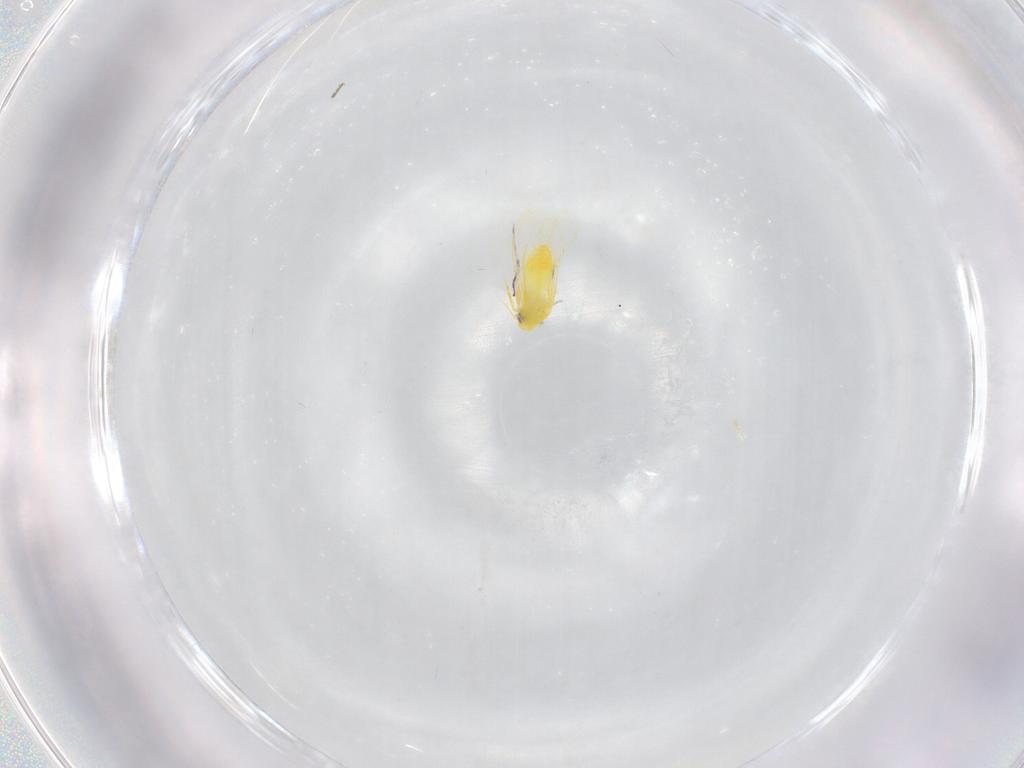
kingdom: Animalia
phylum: Arthropoda
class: Insecta
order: Hemiptera
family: Aleyrodidae
